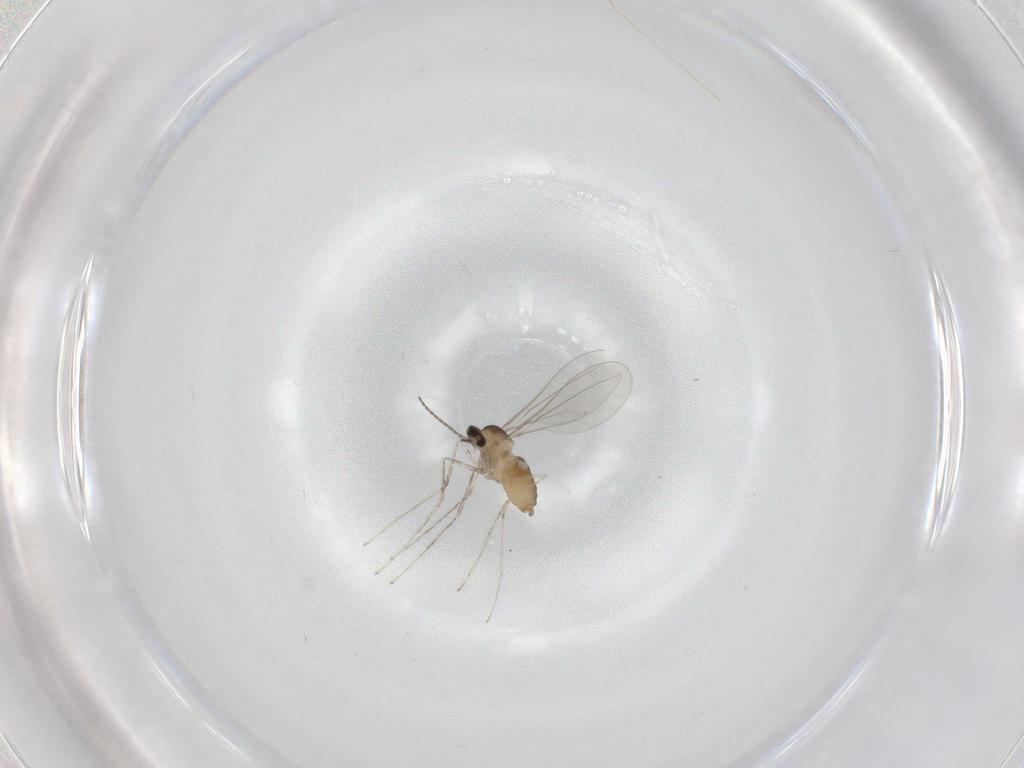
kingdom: Animalia
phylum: Arthropoda
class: Insecta
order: Diptera
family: Cecidomyiidae
